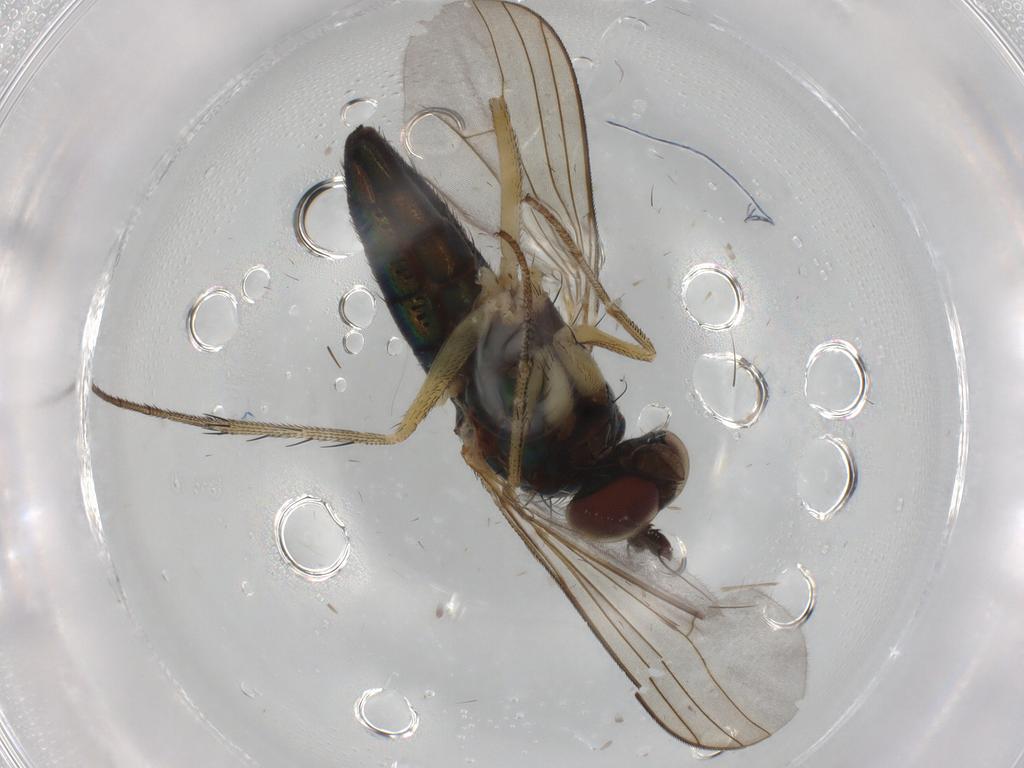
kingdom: Animalia
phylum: Arthropoda
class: Insecta
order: Diptera
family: Dolichopodidae
